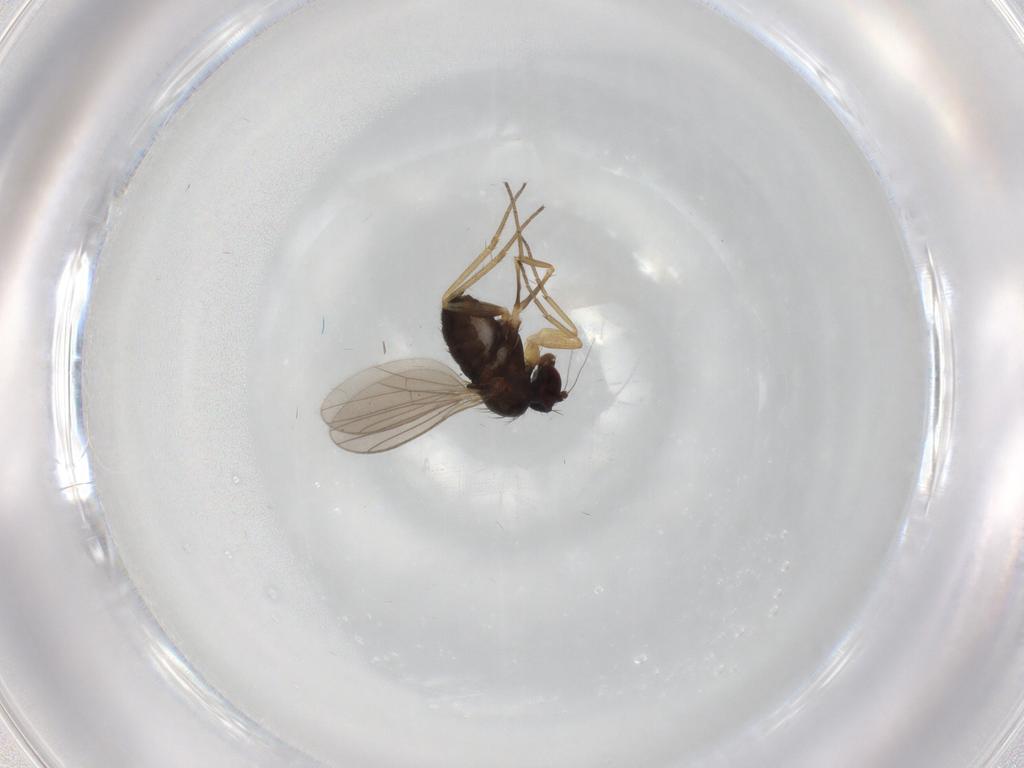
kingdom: Animalia
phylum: Arthropoda
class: Insecta
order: Diptera
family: Dolichopodidae
